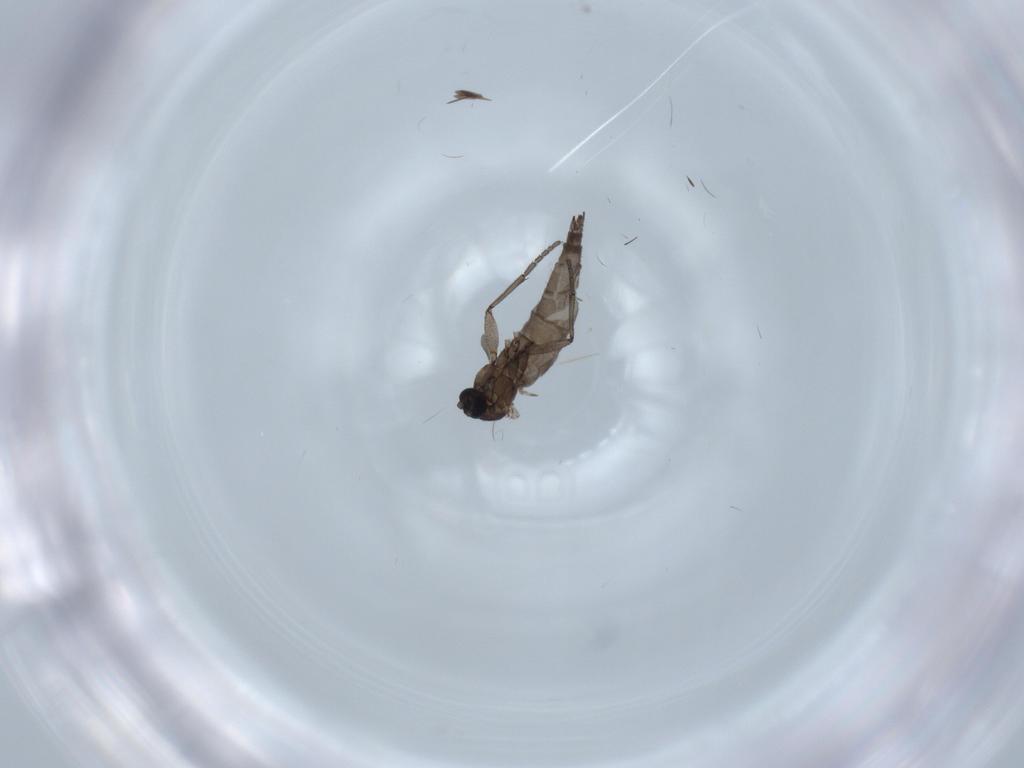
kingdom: Animalia
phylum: Arthropoda
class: Insecta
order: Diptera
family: Sciaridae
